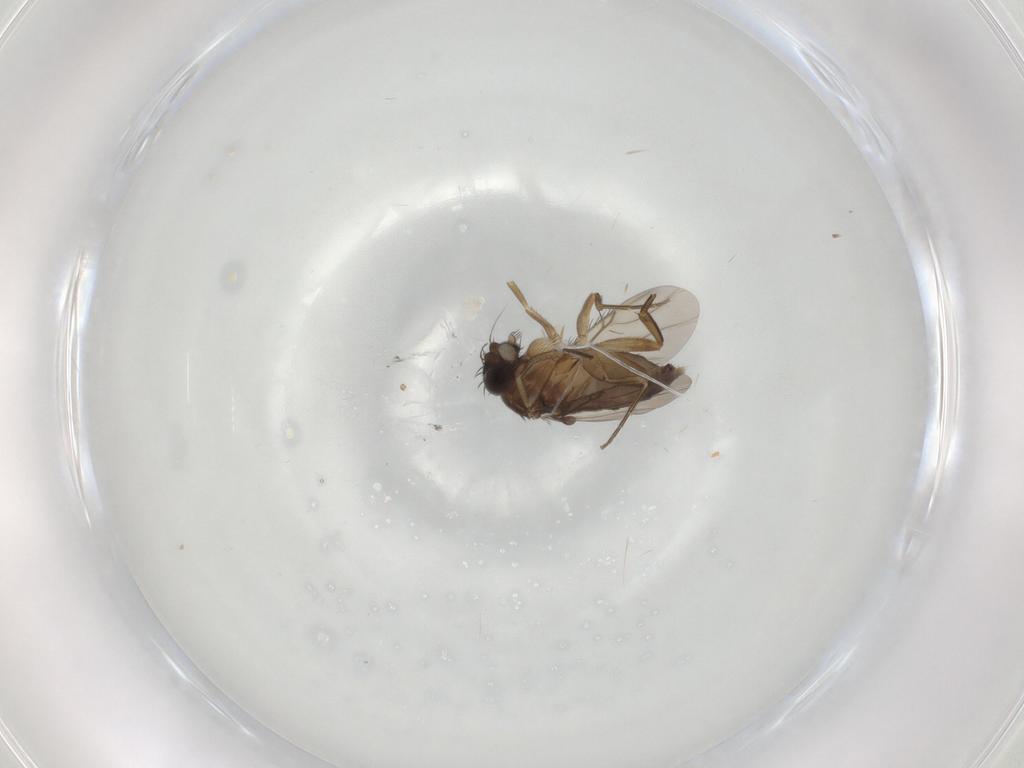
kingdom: Animalia
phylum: Arthropoda
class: Insecta
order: Diptera
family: Phoridae
